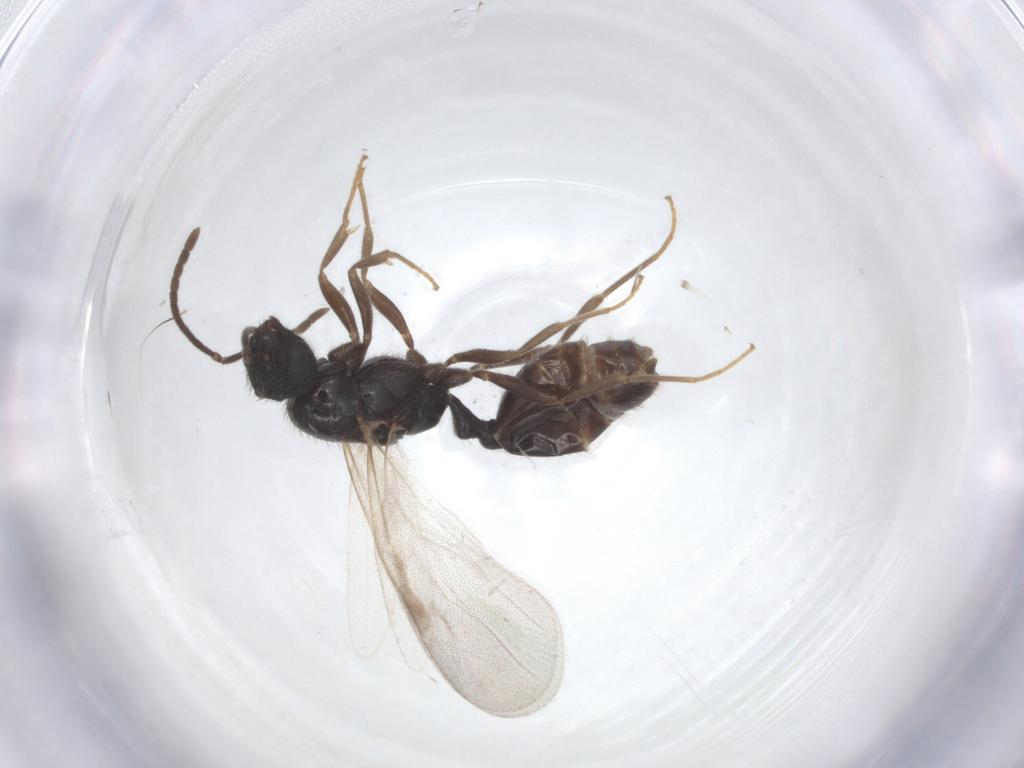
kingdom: Animalia
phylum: Arthropoda
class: Insecta
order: Hymenoptera
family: Formicidae
